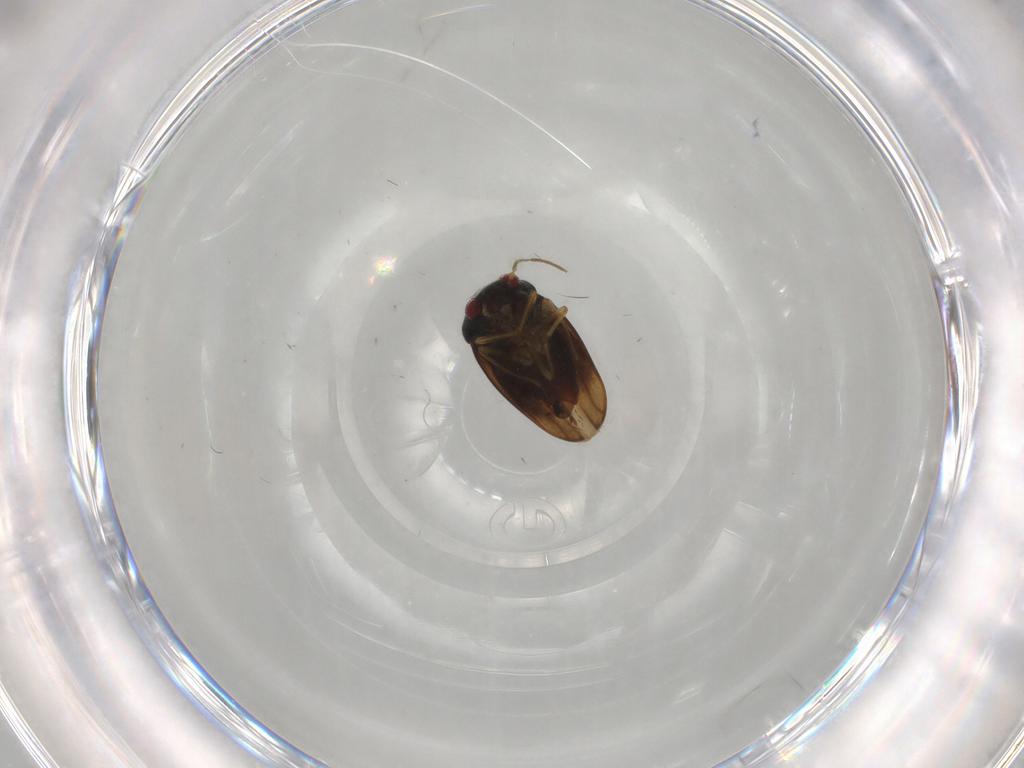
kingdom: Animalia
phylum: Arthropoda
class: Insecta
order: Hemiptera
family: Schizopteridae
